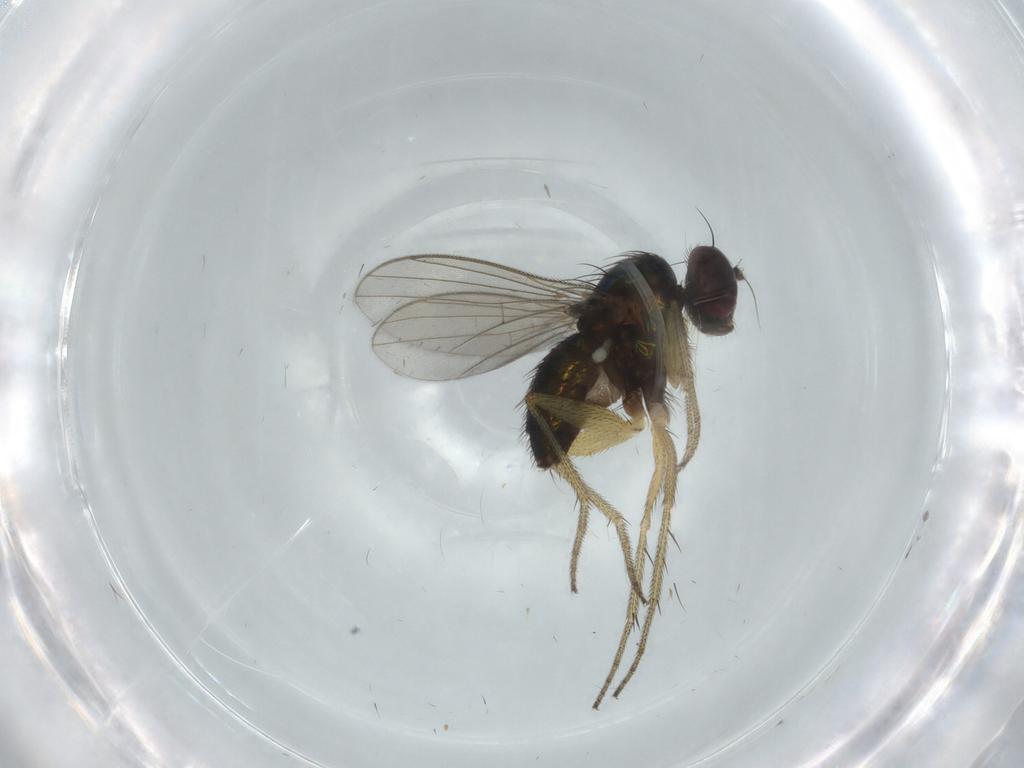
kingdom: Animalia
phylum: Arthropoda
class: Insecta
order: Diptera
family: Dolichopodidae
